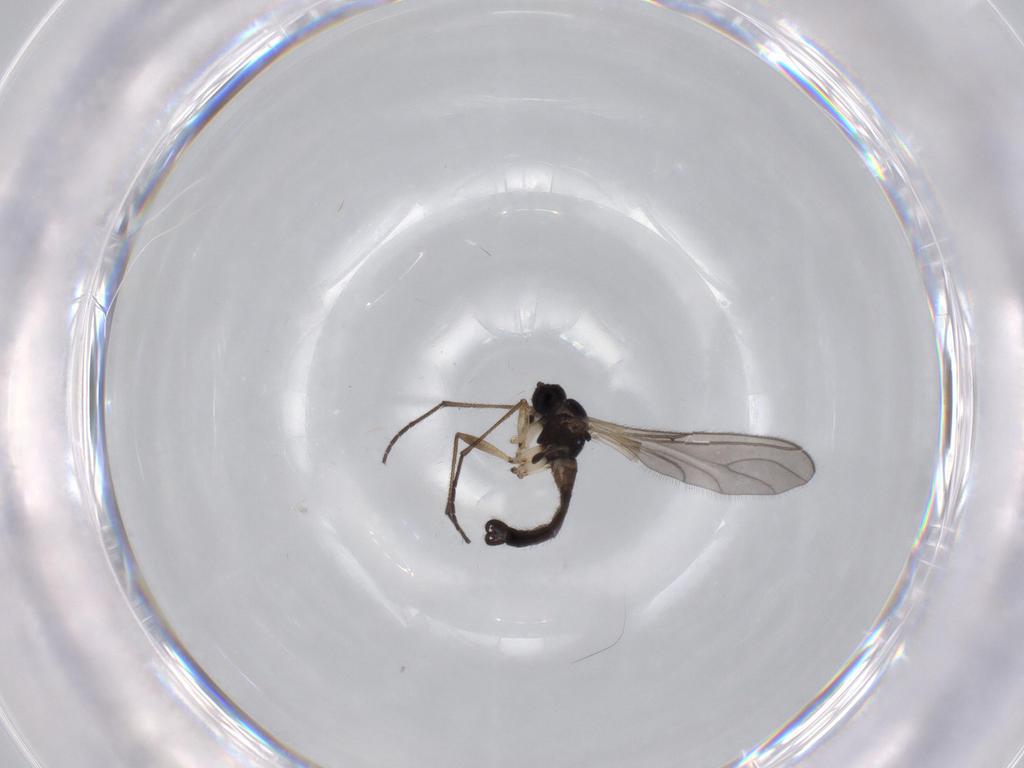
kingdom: Animalia
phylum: Arthropoda
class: Insecta
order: Diptera
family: Sciaridae
